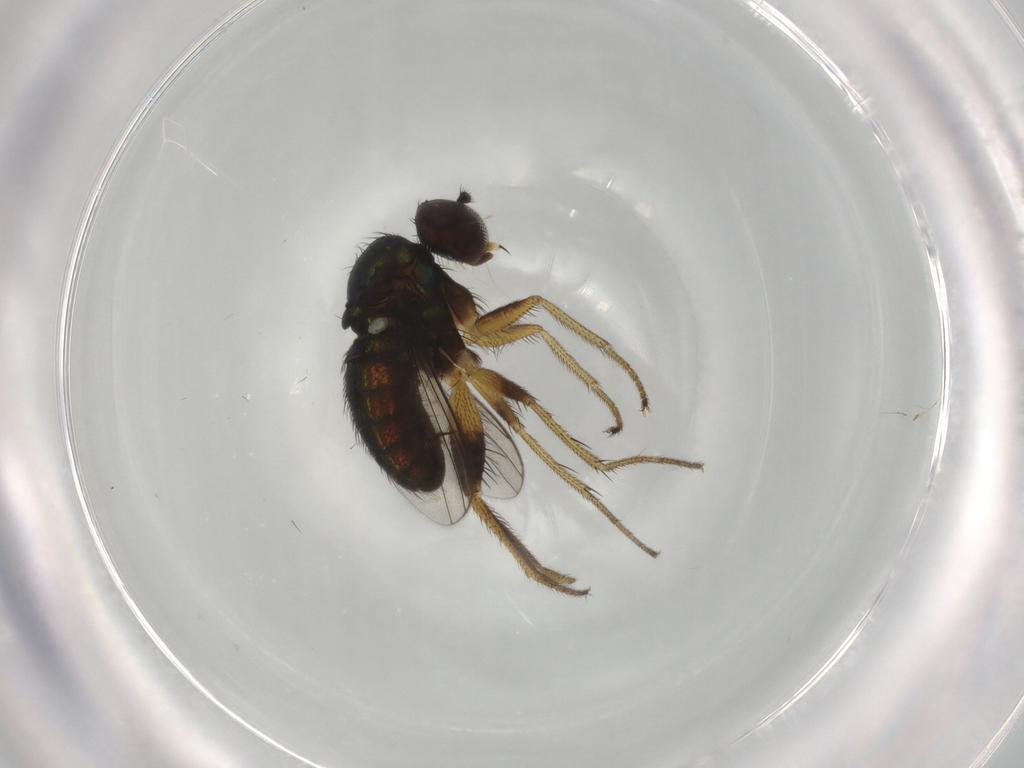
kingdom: Animalia
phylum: Arthropoda
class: Insecta
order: Diptera
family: Dolichopodidae
